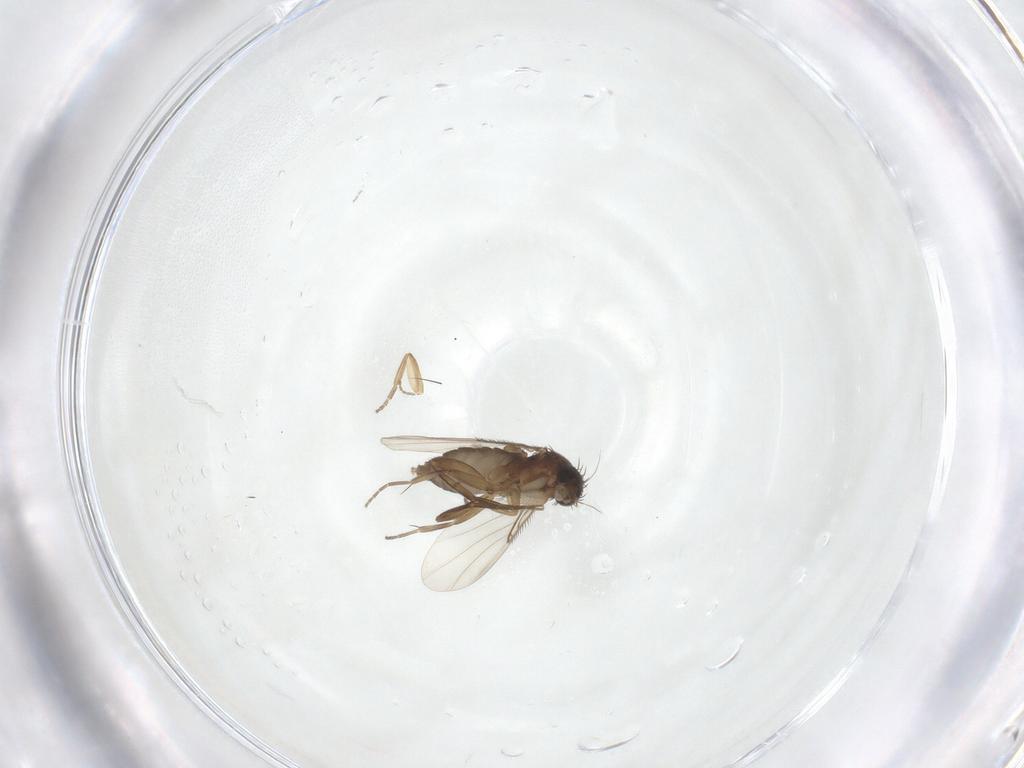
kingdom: Animalia
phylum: Arthropoda
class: Insecta
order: Diptera
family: Phoridae
